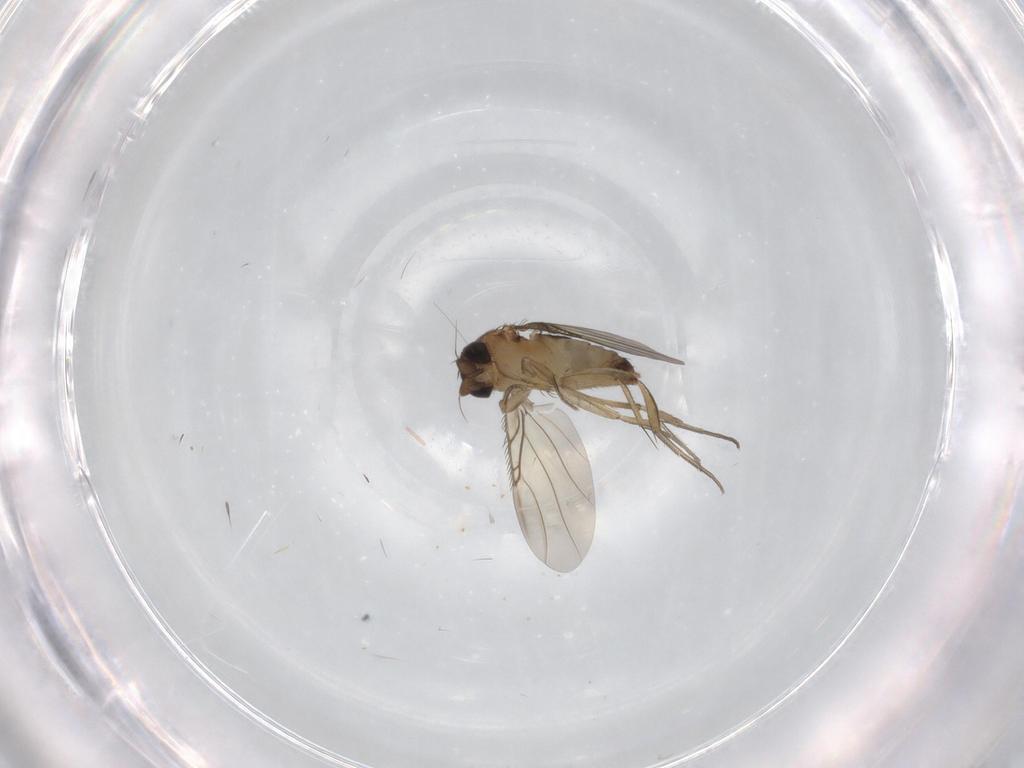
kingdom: Animalia
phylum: Arthropoda
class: Insecta
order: Diptera
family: Phoridae
